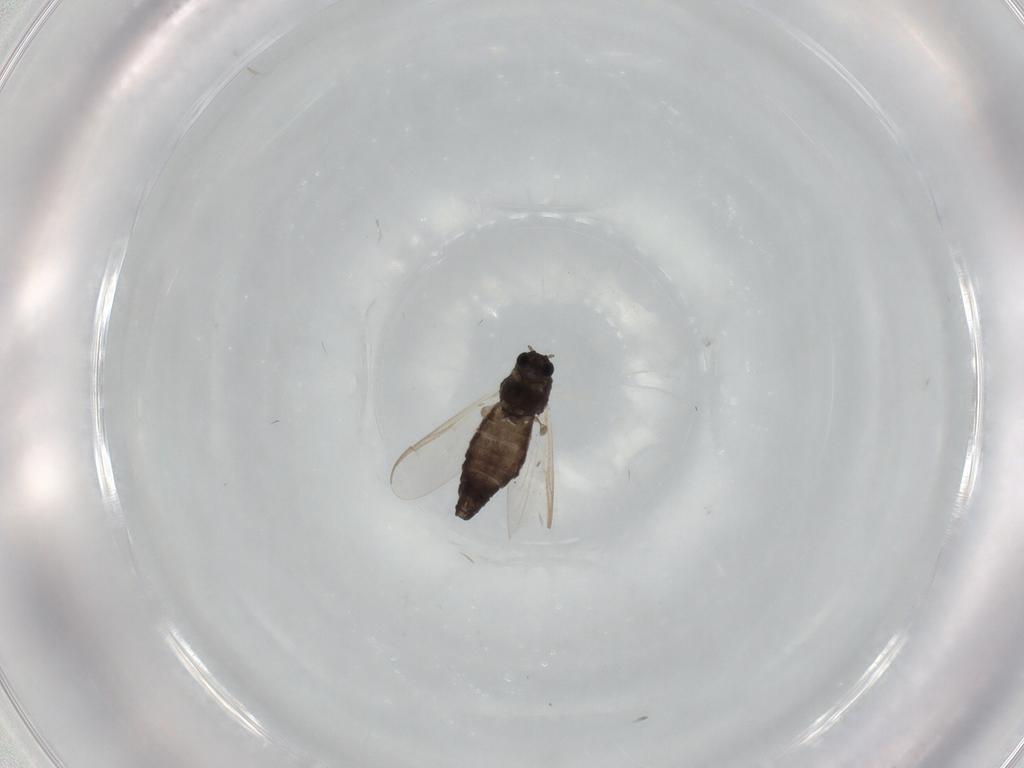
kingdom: Animalia
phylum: Arthropoda
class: Insecta
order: Diptera
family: Chironomidae
